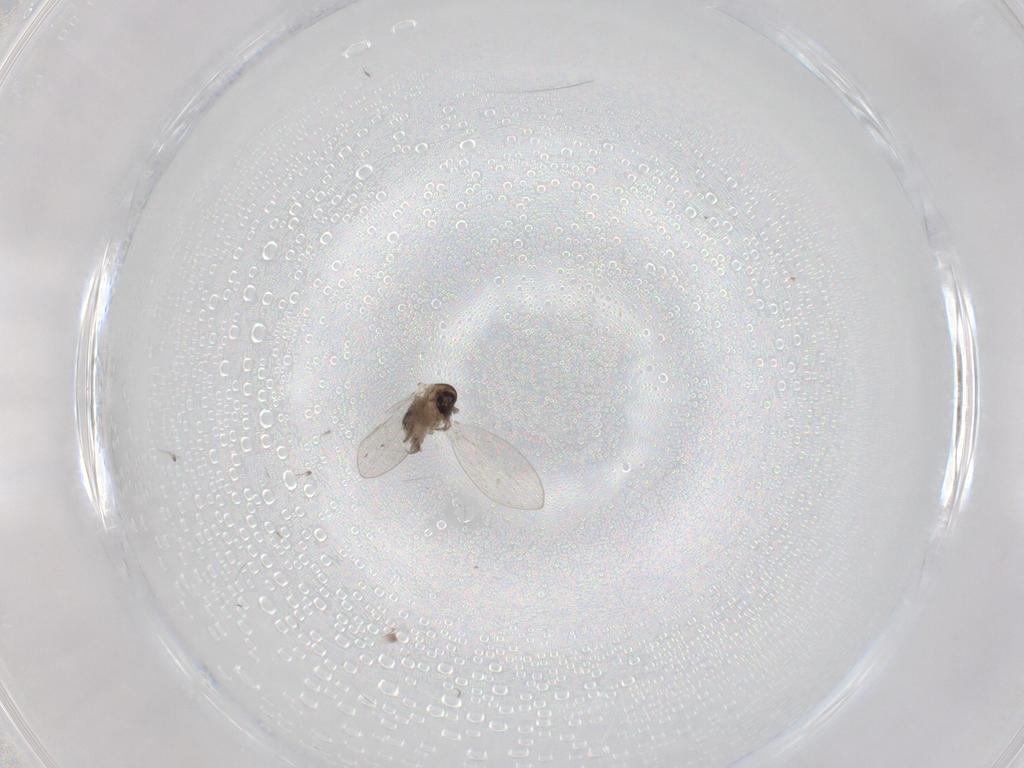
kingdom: Animalia
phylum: Arthropoda
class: Insecta
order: Diptera
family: Psychodidae
